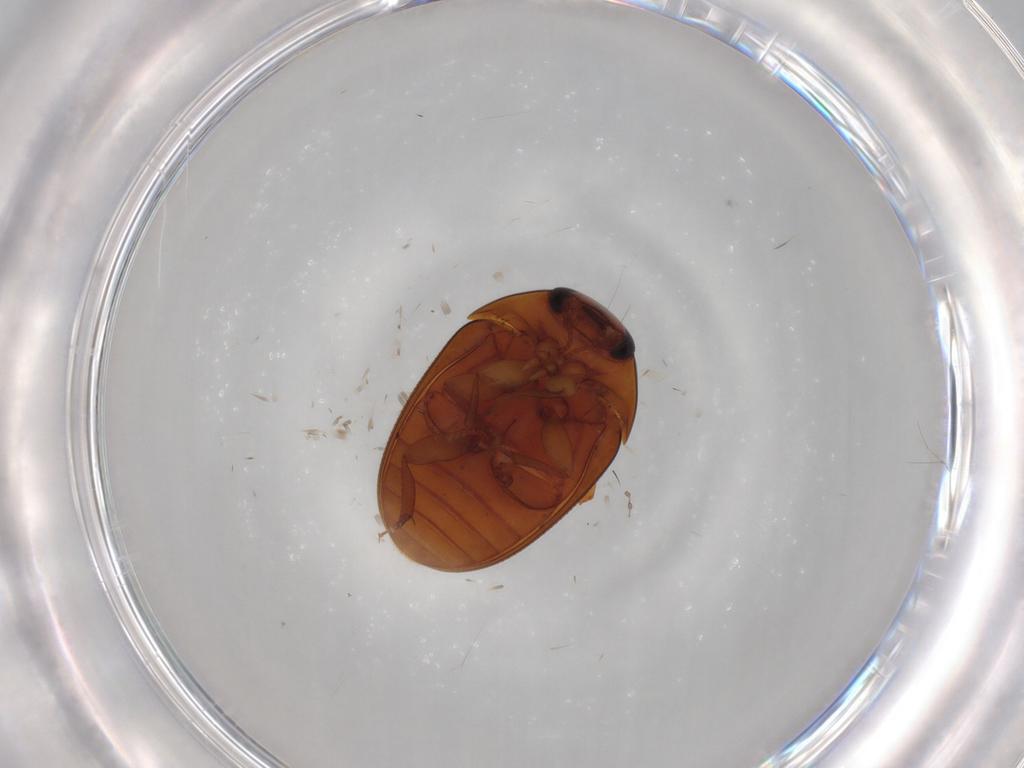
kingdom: Animalia
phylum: Arthropoda
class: Insecta
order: Coleoptera
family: Phalacridae
